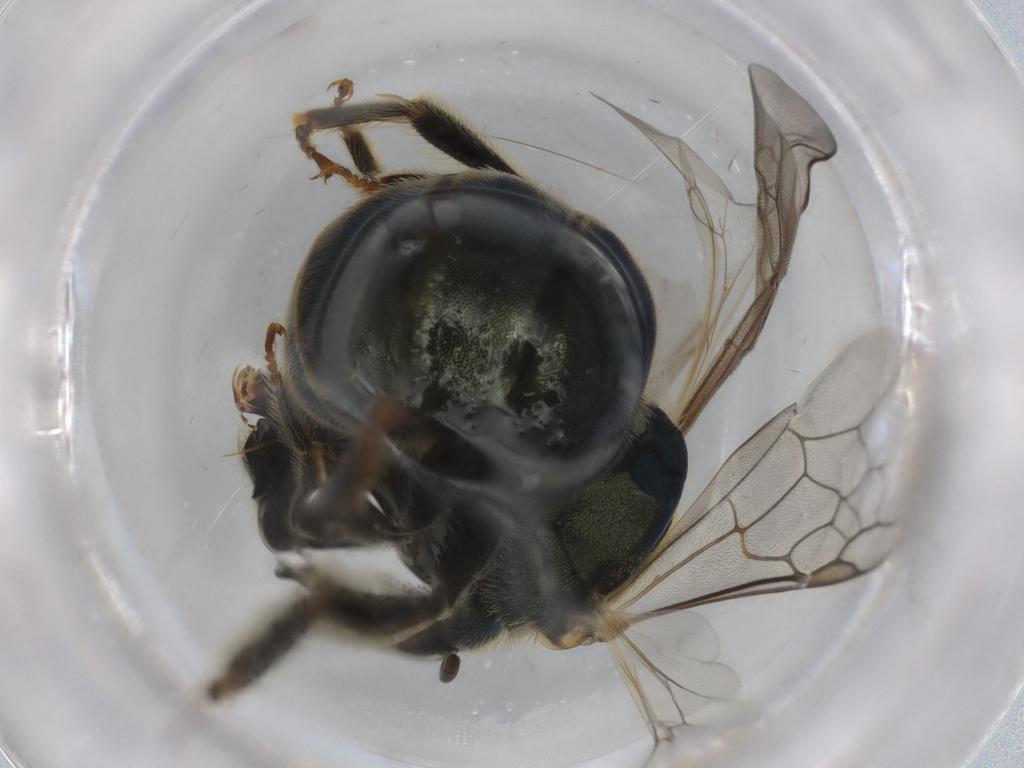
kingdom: Animalia
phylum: Arthropoda
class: Insecta
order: Hymenoptera
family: Halictidae
